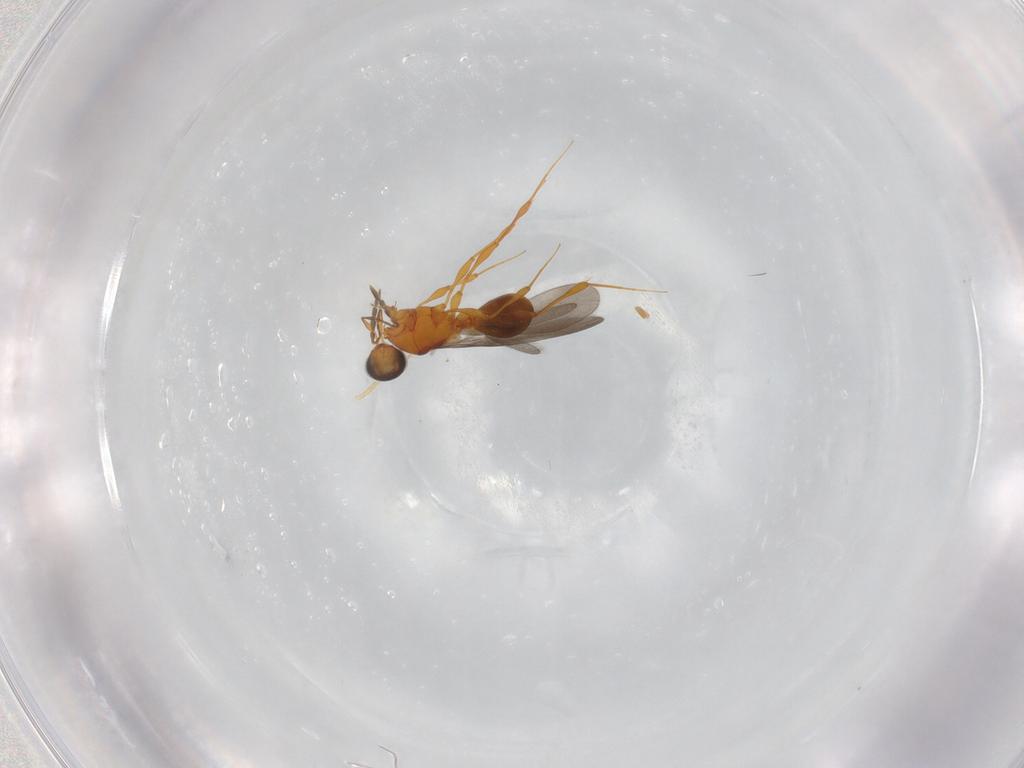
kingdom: Animalia
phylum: Arthropoda
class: Insecta
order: Hymenoptera
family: Platygastridae
